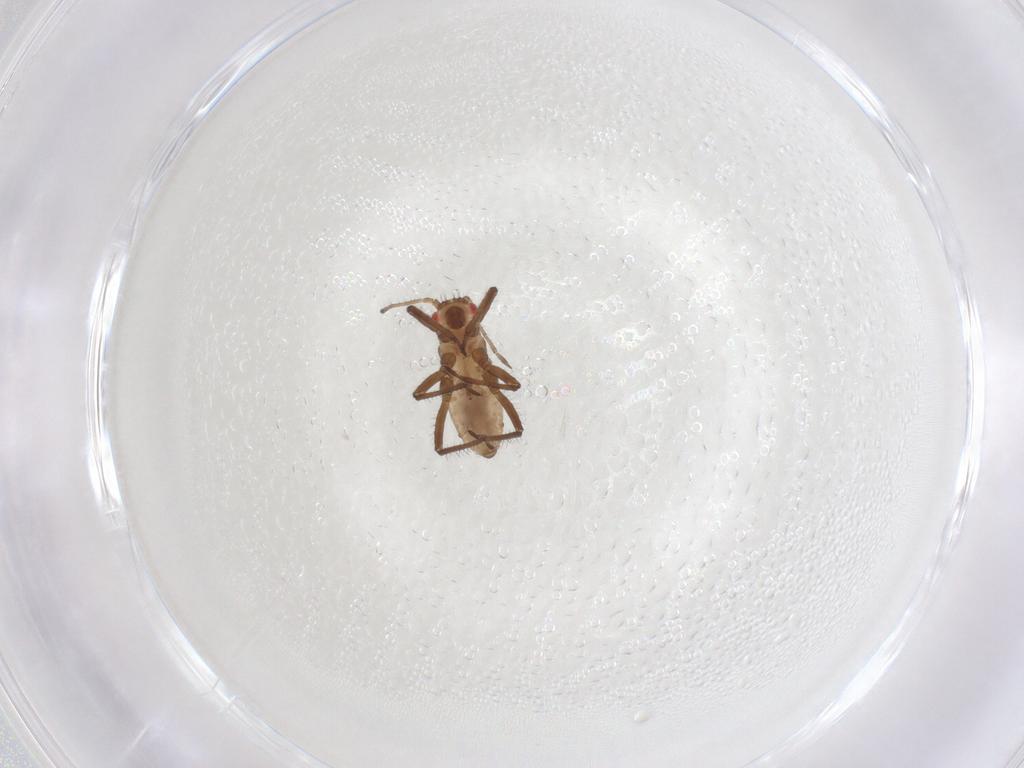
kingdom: Animalia
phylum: Arthropoda
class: Insecta
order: Hemiptera
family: Lachnidae
